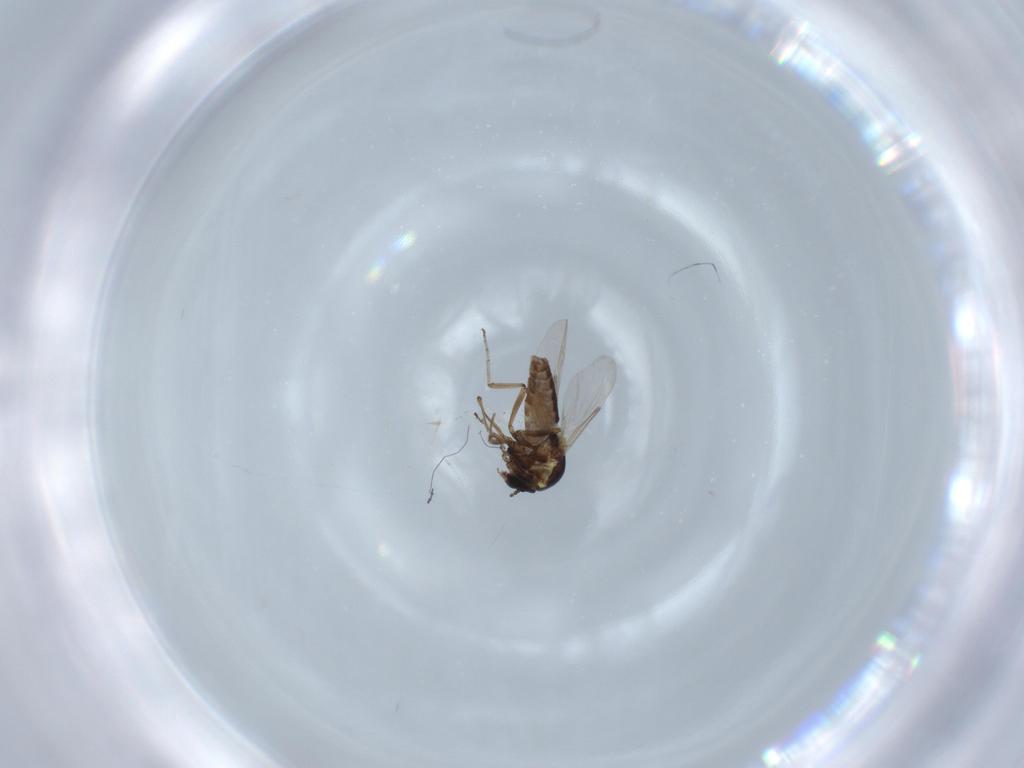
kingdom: Animalia
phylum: Arthropoda
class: Insecta
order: Diptera
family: Ceratopogonidae
